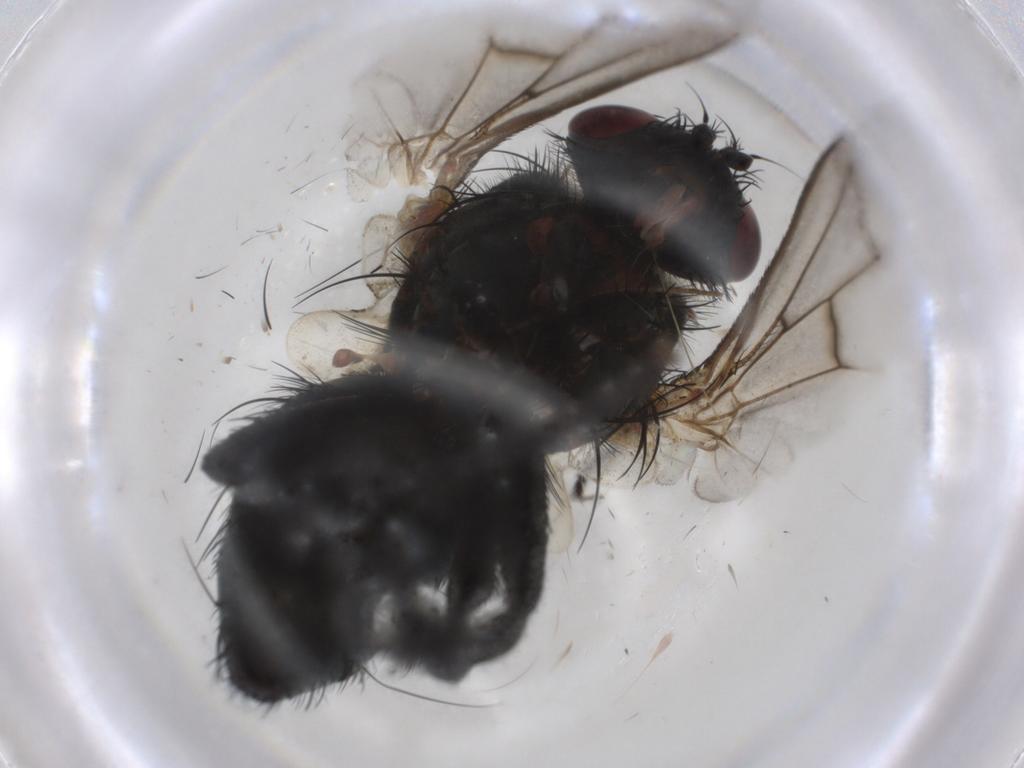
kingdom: Animalia
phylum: Arthropoda
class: Insecta
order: Diptera
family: Tachinidae
